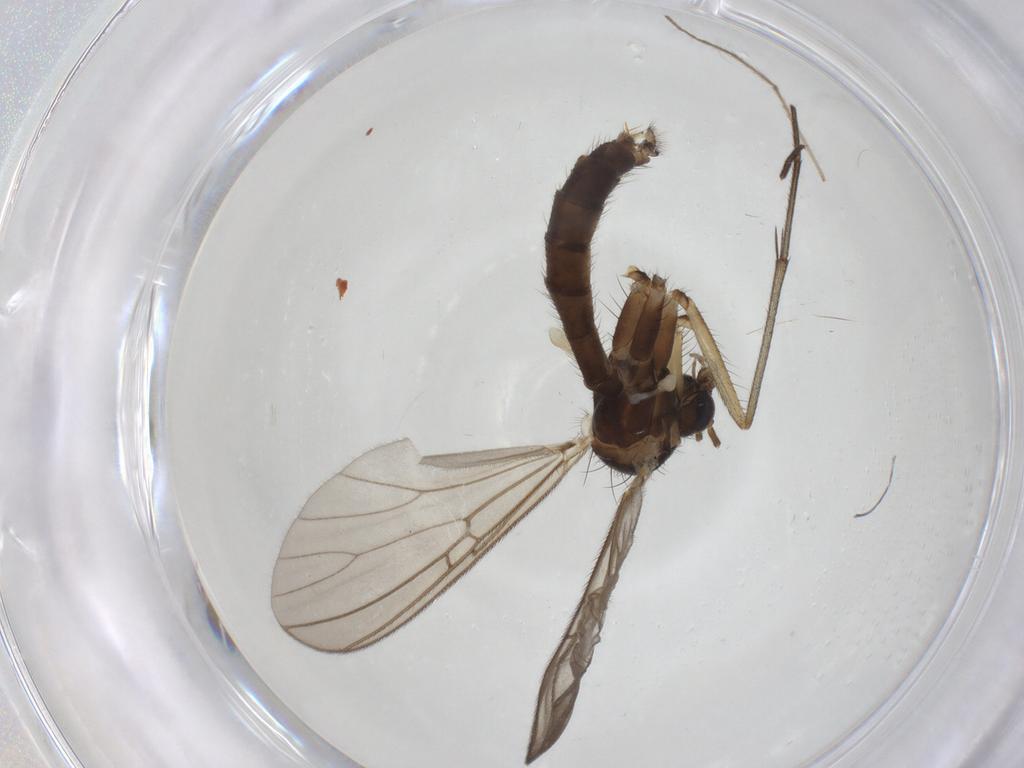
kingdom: Animalia
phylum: Arthropoda
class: Insecta
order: Diptera
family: Mycetophilidae
